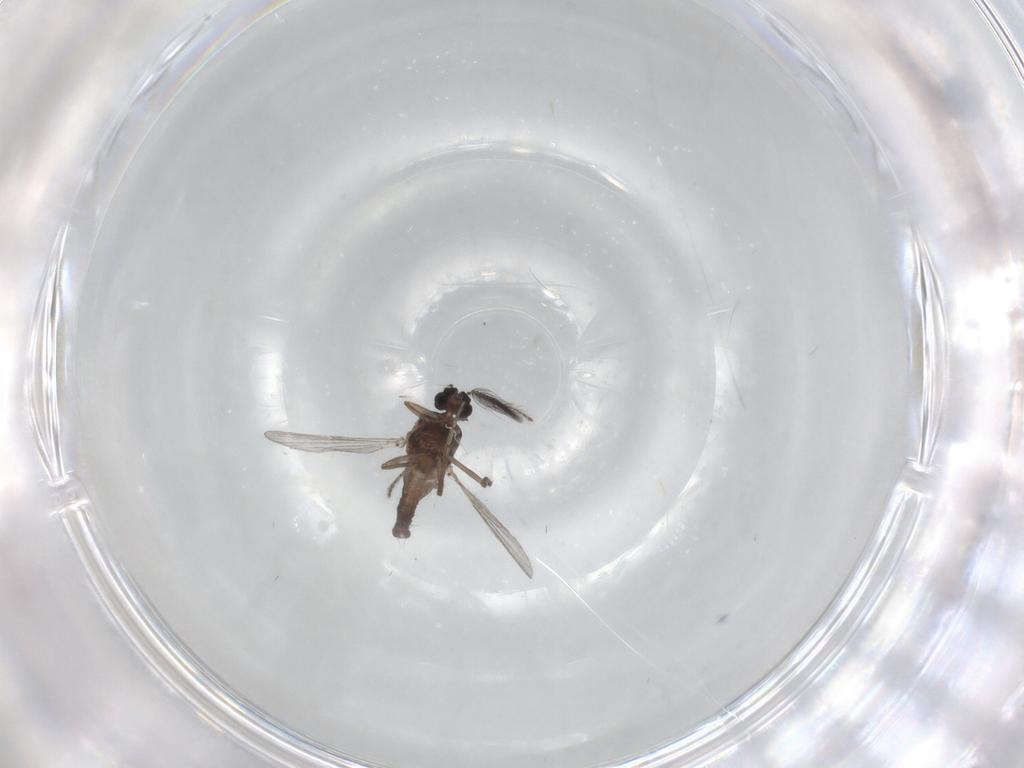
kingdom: Animalia
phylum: Arthropoda
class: Insecta
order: Diptera
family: Ceratopogonidae
